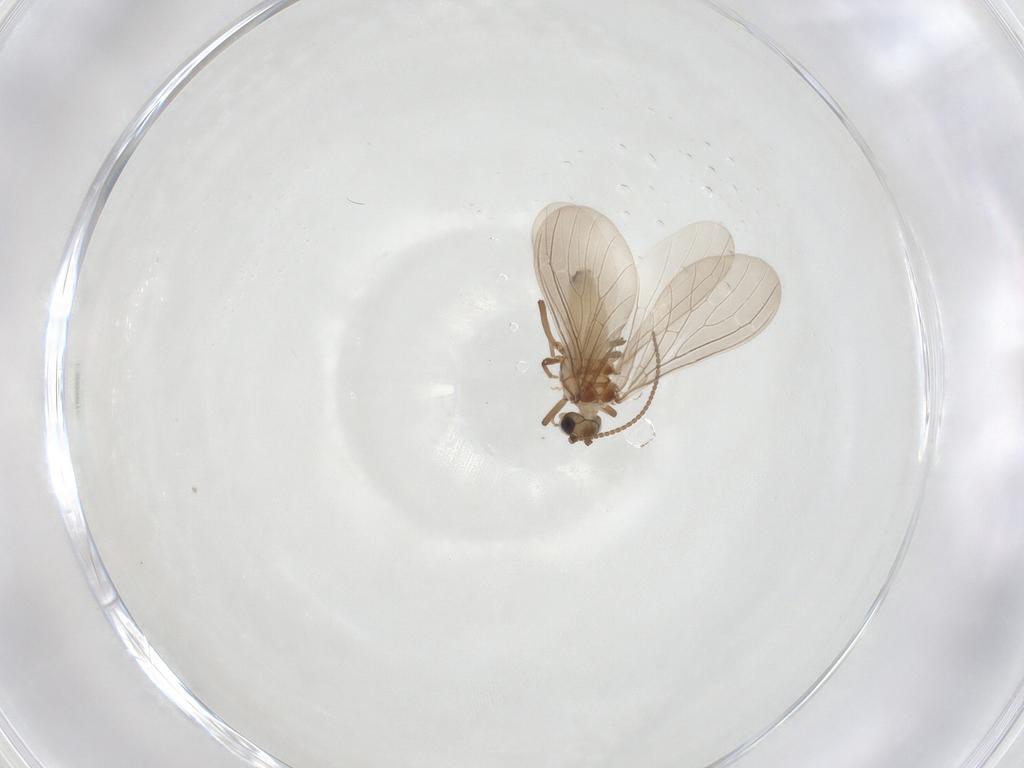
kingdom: Animalia
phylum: Arthropoda
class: Insecta
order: Neuroptera
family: Coniopterygidae
